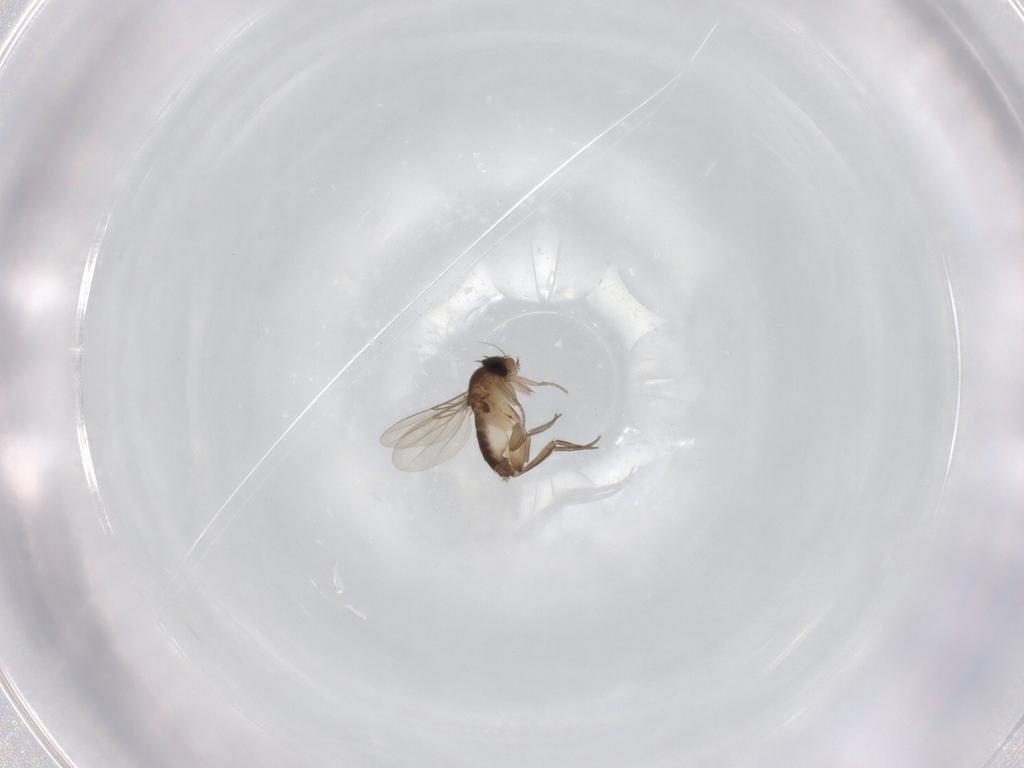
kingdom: Animalia
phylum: Arthropoda
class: Insecta
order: Diptera
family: Phoridae
